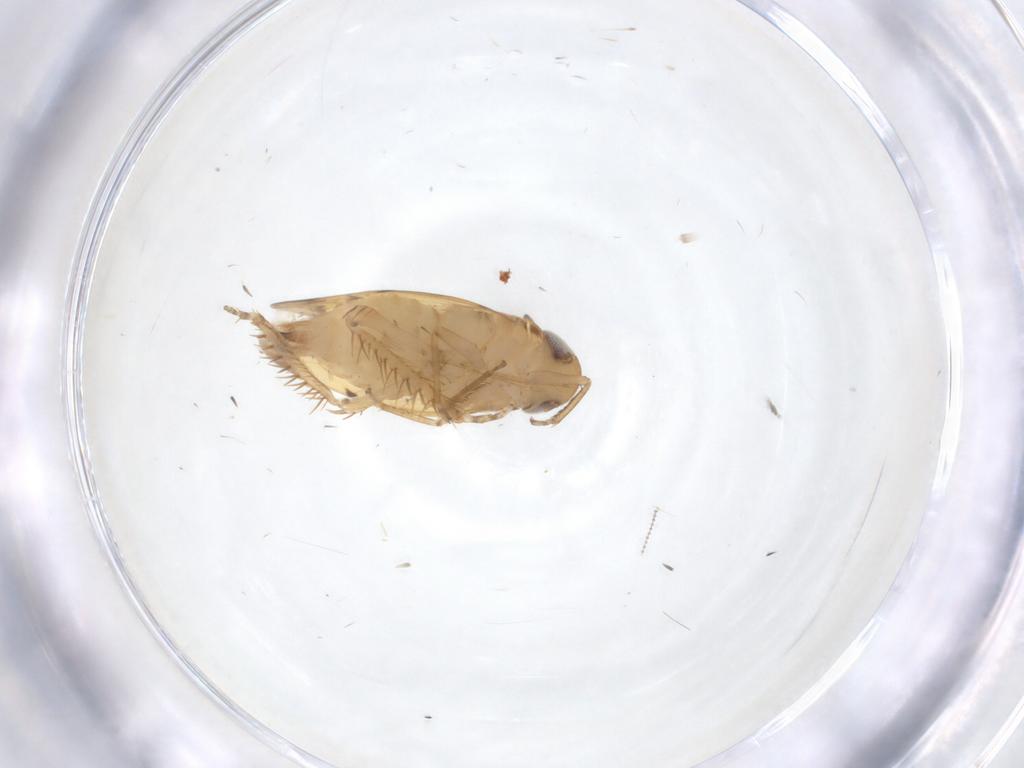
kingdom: Animalia
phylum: Arthropoda
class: Insecta
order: Hemiptera
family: Cicadellidae
